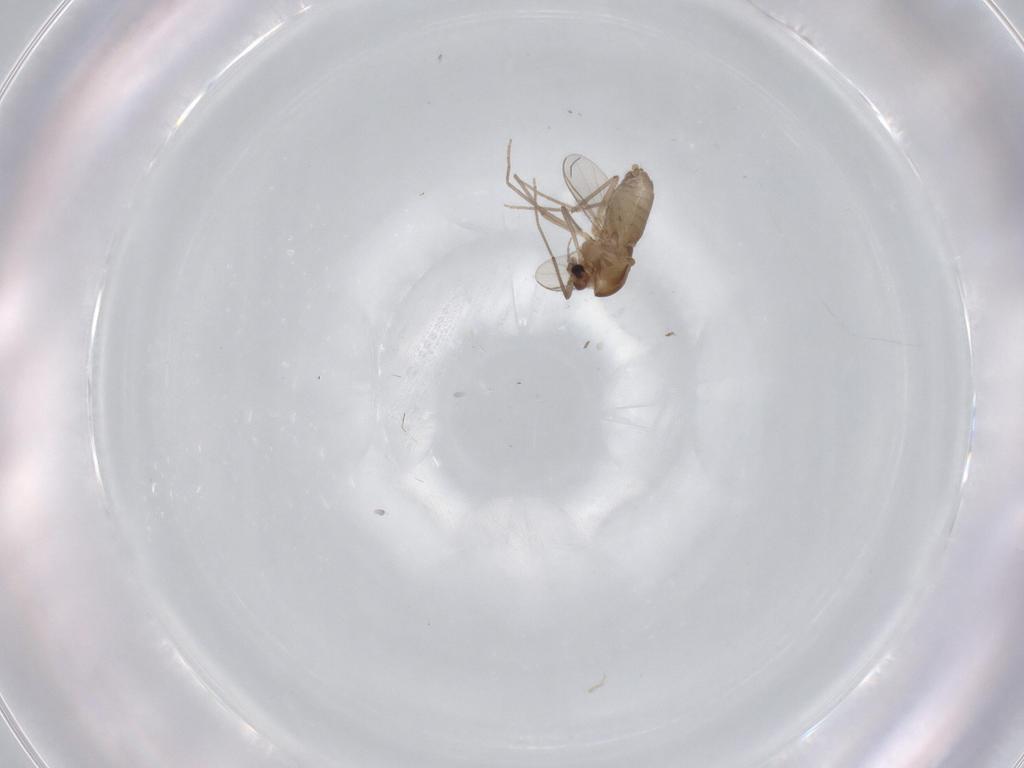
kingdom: Animalia
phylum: Arthropoda
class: Insecta
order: Diptera
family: Chironomidae
